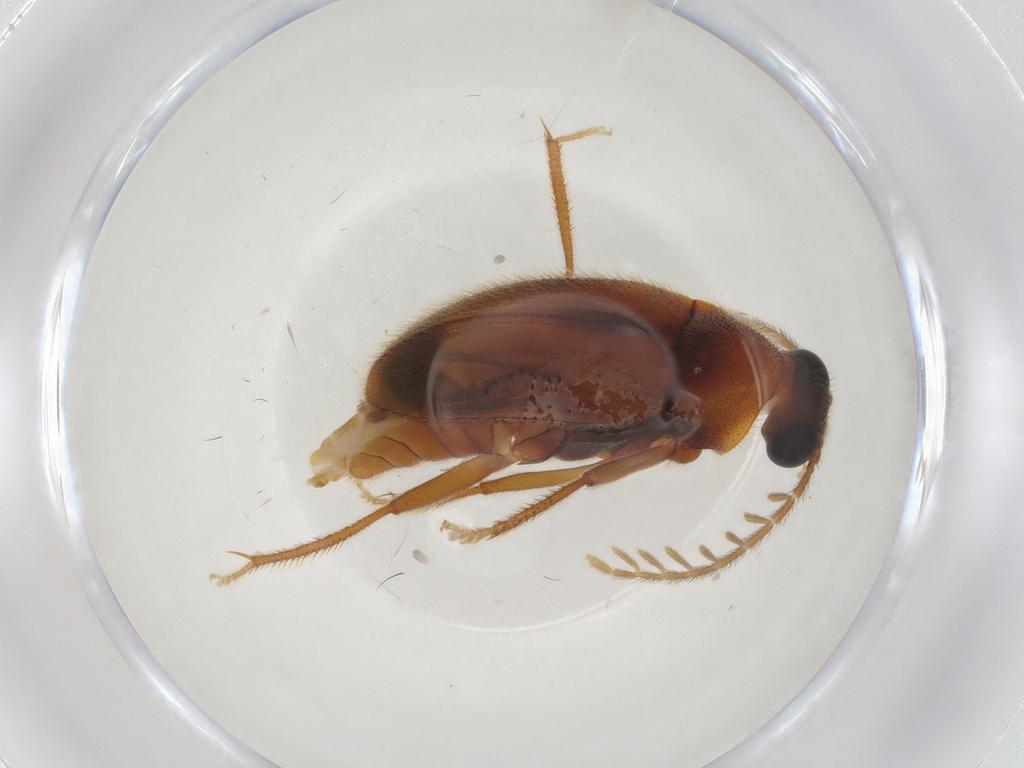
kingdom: Animalia
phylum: Arthropoda
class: Insecta
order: Coleoptera
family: Ptilodactylidae
